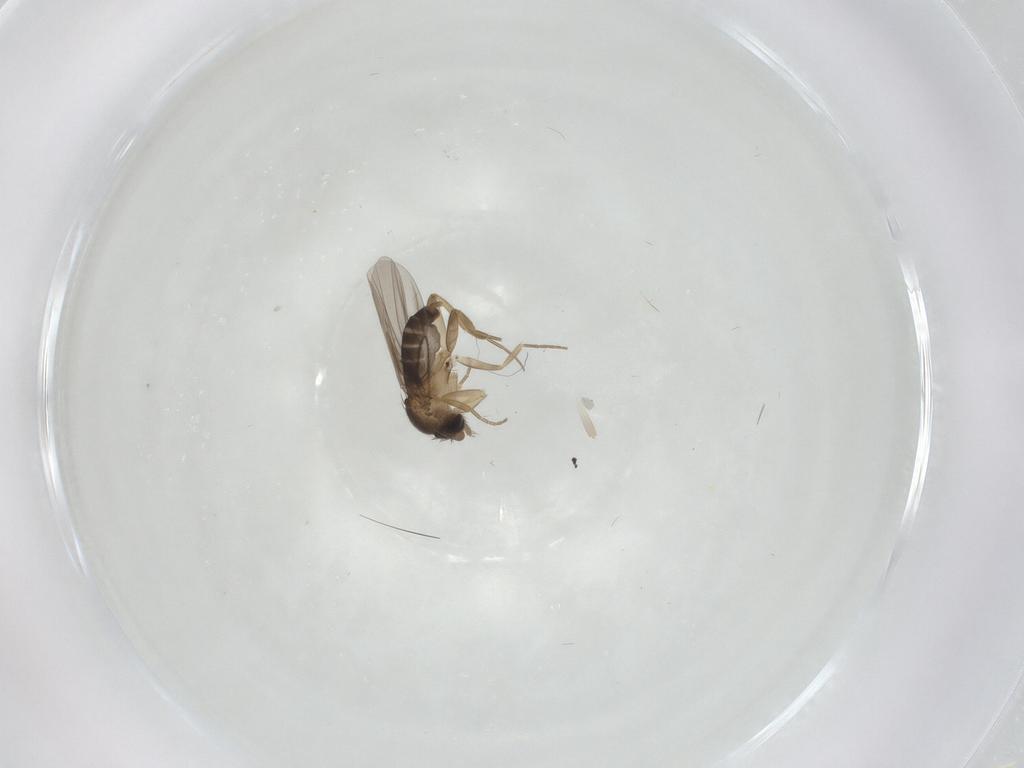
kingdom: Animalia
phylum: Arthropoda
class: Insecta
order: Diptera
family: Phoridae
